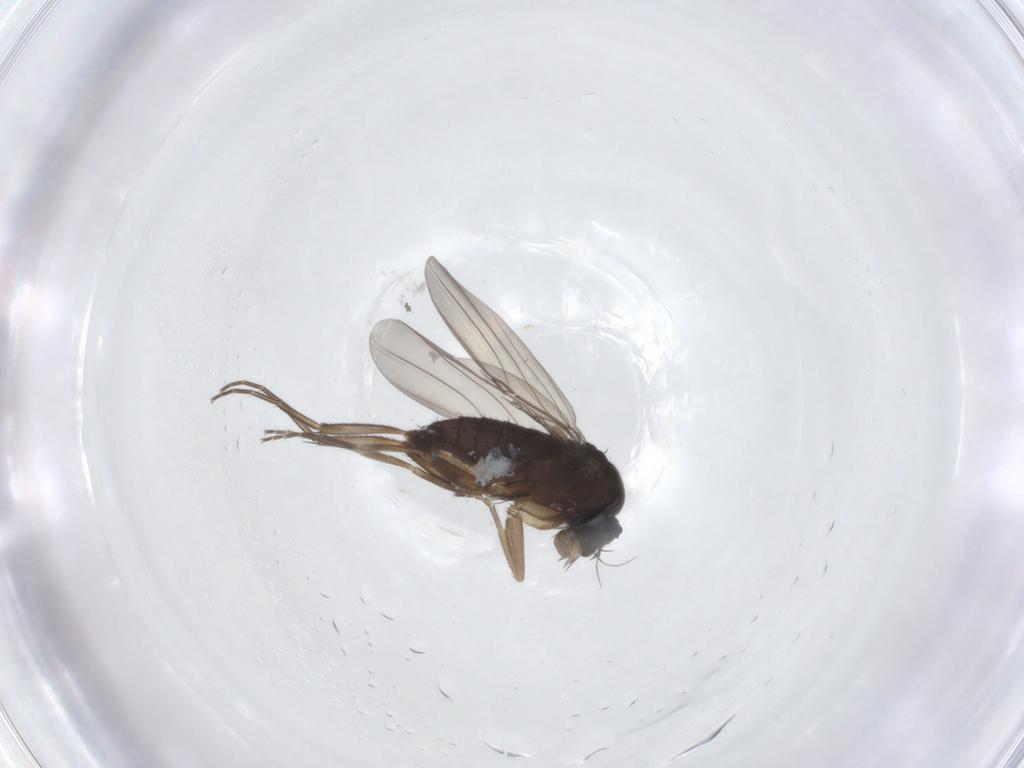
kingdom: Animalia
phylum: Arthropoda
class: Insecta
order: Diptera
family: Phoridae
